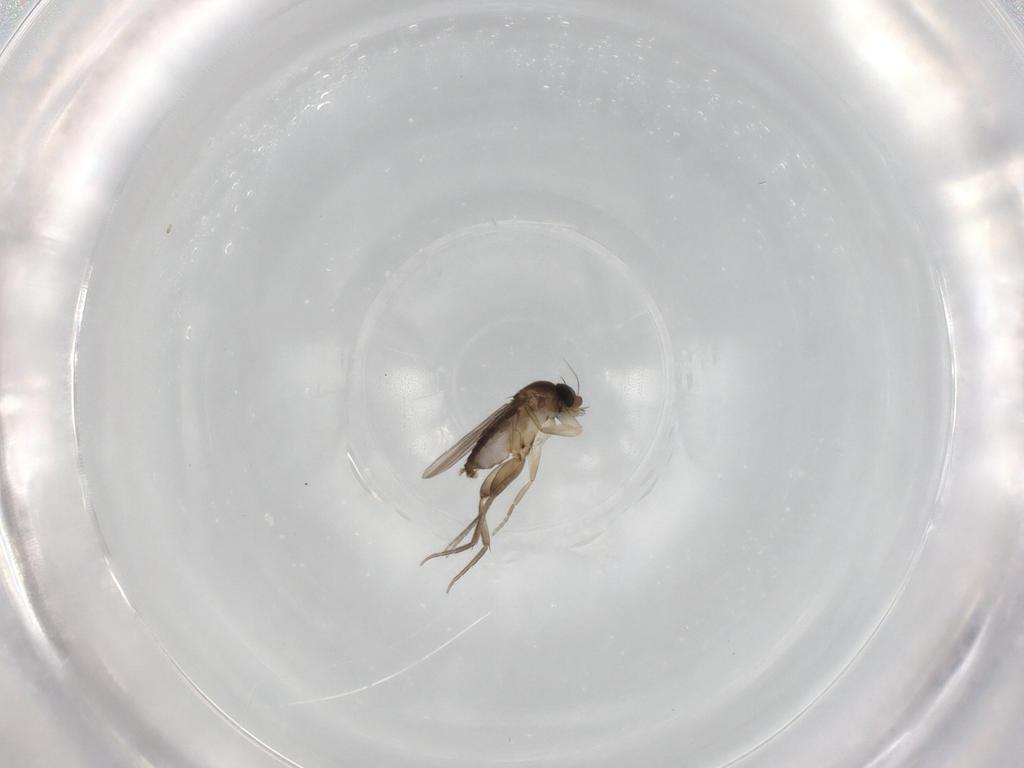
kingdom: Animalia
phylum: Arthropoda
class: Insecta
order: Diptera
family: Phoridae
